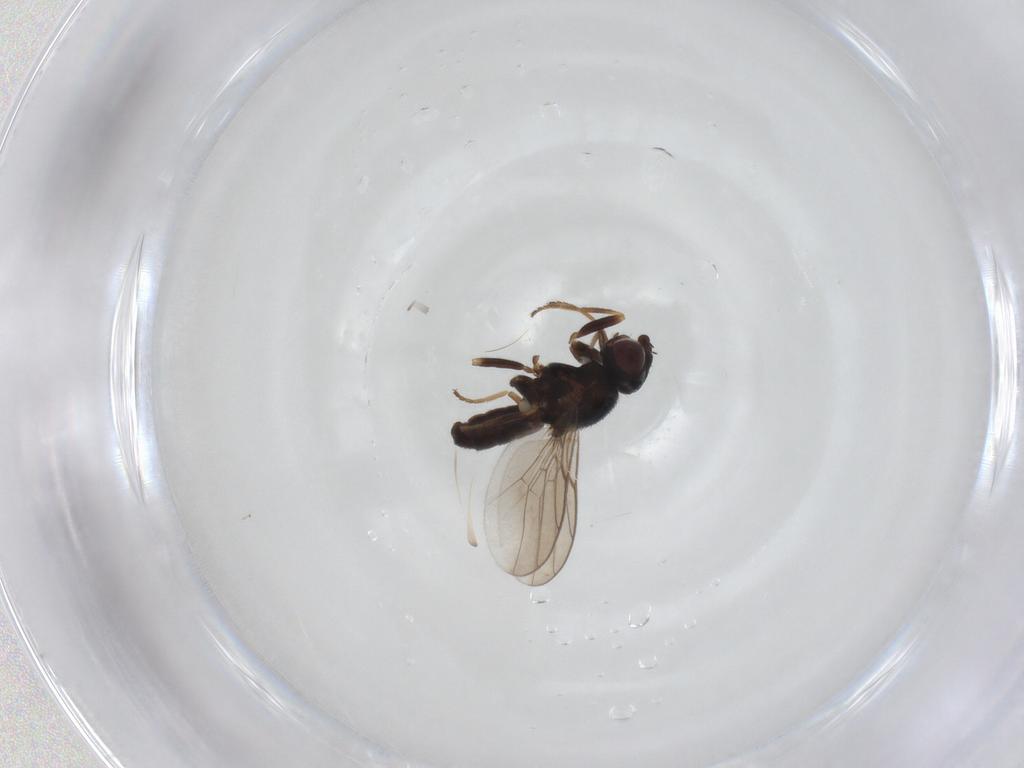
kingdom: Animalia
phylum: Arthropoda
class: Insecta
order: Diptera
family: Chloropidae
